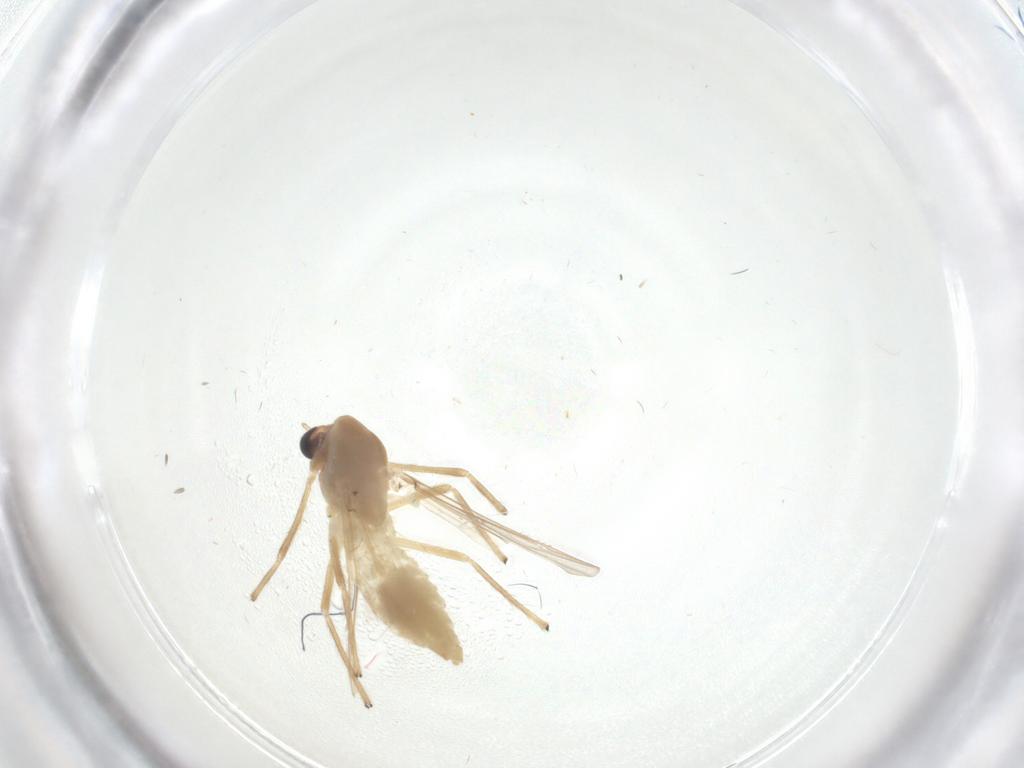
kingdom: Animalia
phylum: Arthropoda
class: Insecta
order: Diptera
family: Chironomidae
